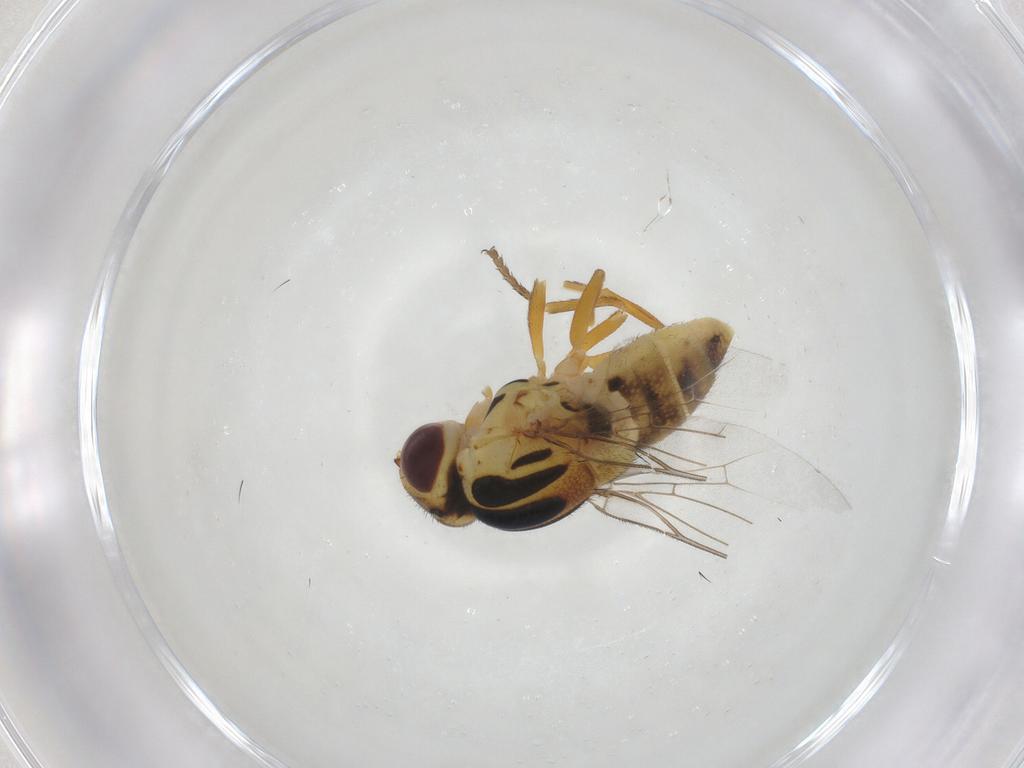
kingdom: Animalia
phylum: Arthropoda
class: Insecta
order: Diptera
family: Chloropidae
